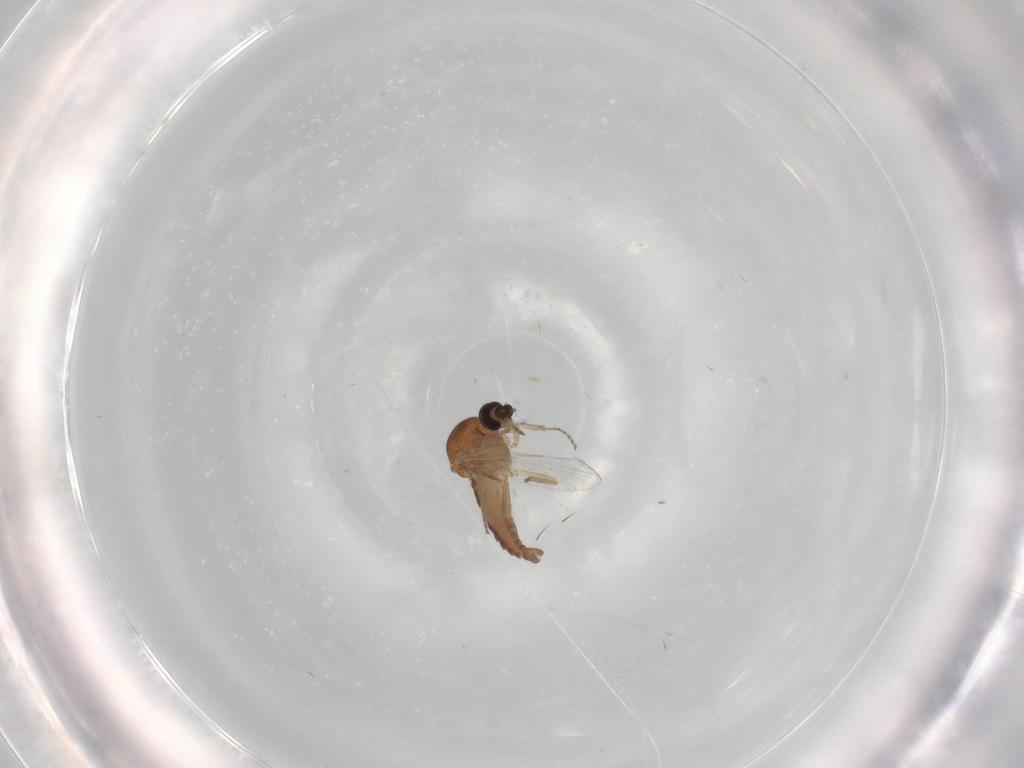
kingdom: Animalia
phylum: Arthropoda
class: Insecta
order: Diptera
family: Ceratopogonidae
